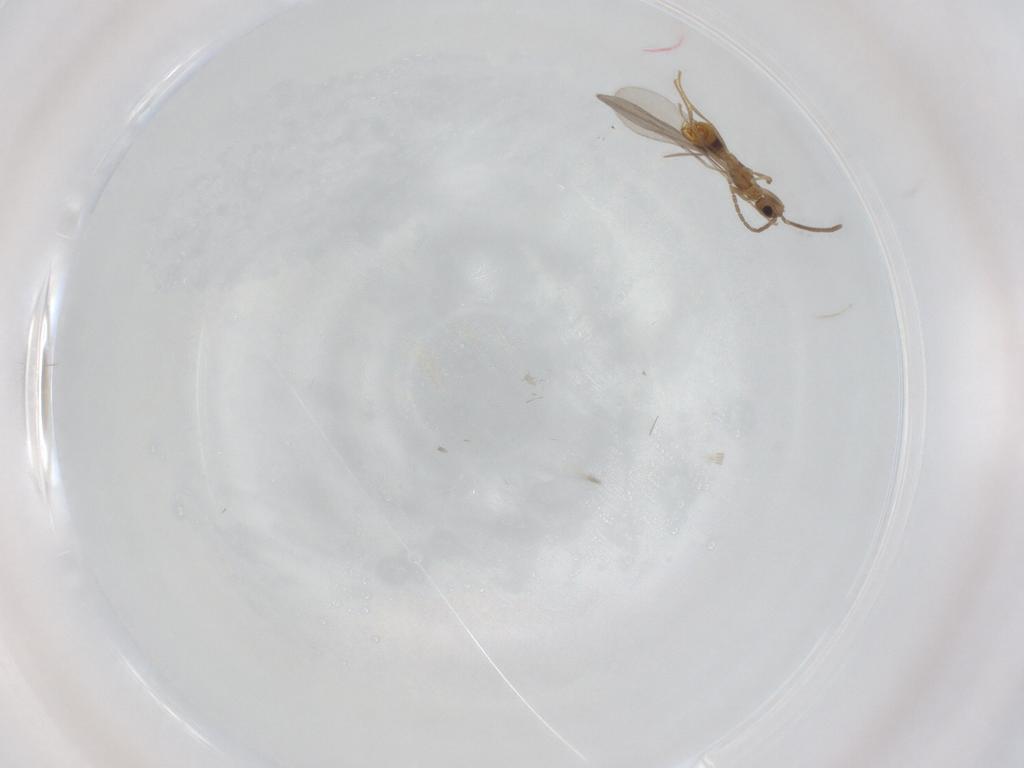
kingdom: Animalia
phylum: Arthropoda
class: Insecta
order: Hymenoptera
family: Formicidae
